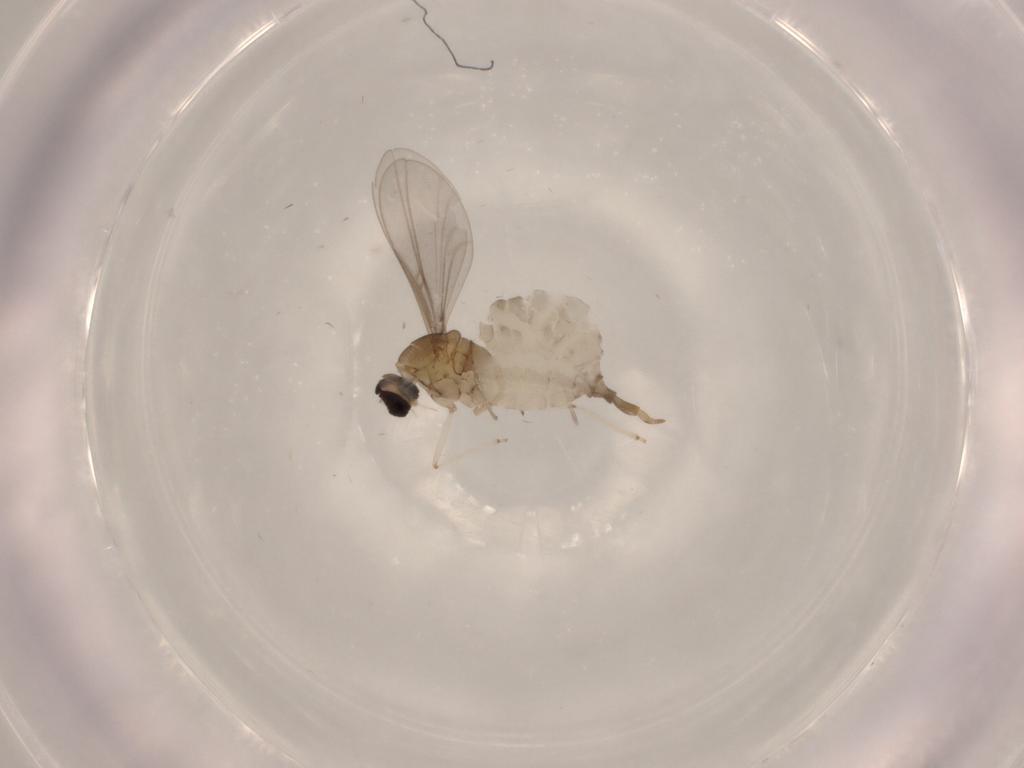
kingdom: Animalia
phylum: Arthropoda
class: Insecta
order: Diptera
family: Cecidomyiidae
